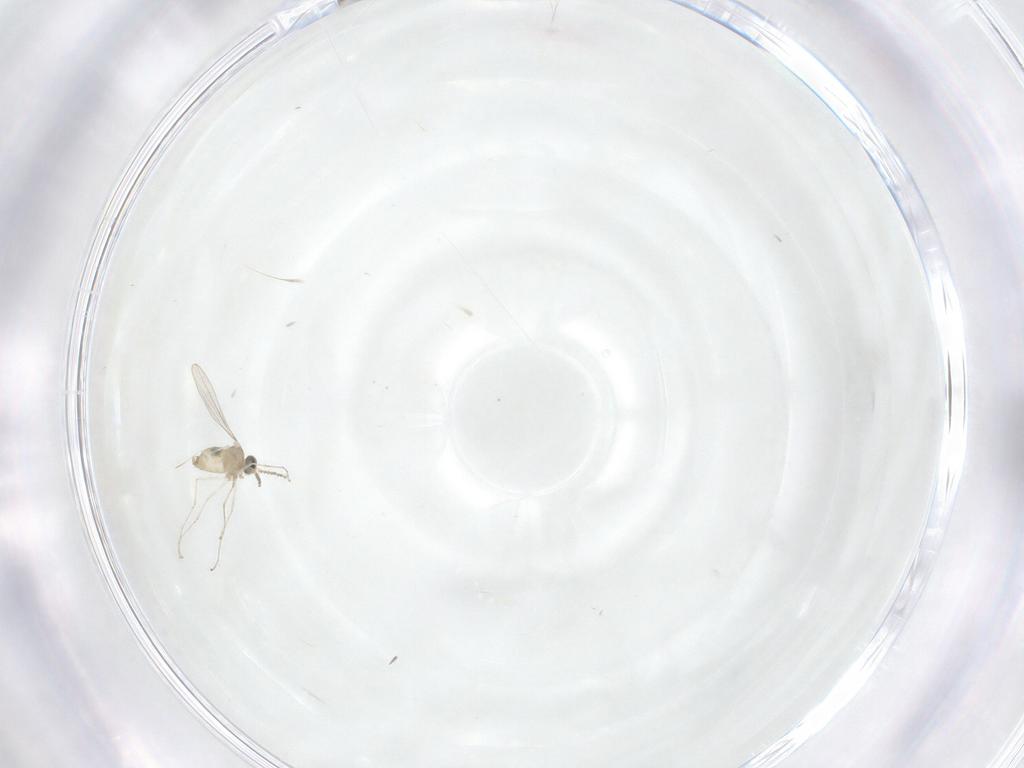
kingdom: Animalia
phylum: Arthropoda
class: Insecta
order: Diptera
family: Cecidomyiidae
